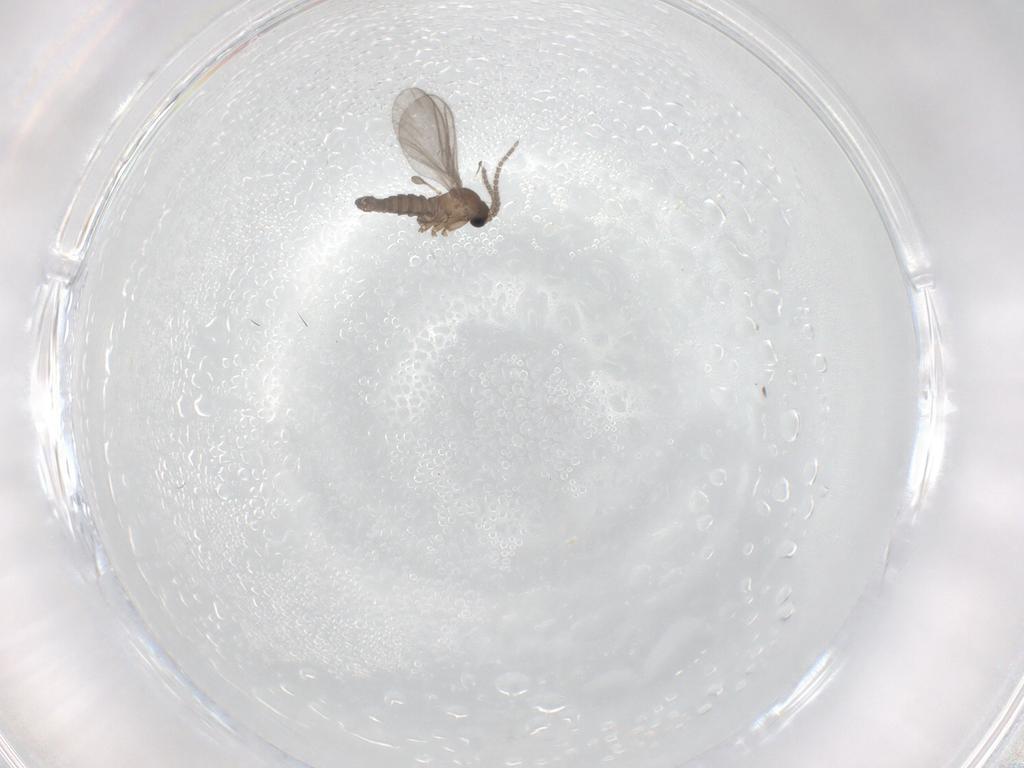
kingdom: Animalia
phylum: Arthropoda
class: Insecta
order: Diptera
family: Sciaridae
